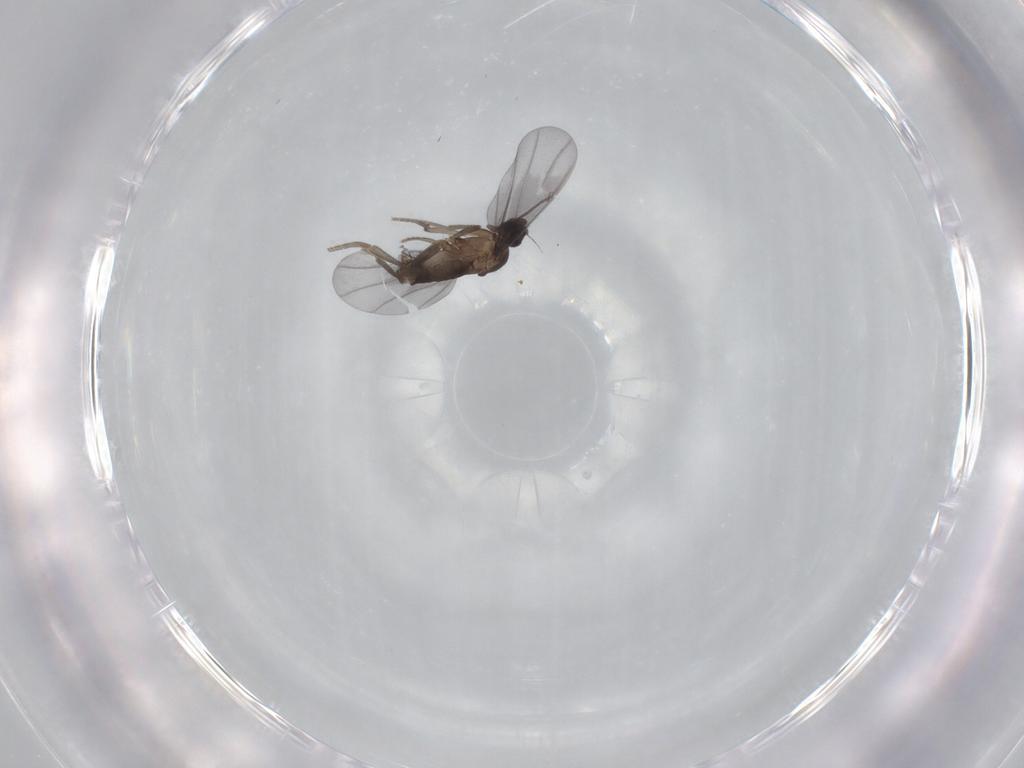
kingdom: Animalia
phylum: Arthropoda
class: Insecta
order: Diptera
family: Phoridae
